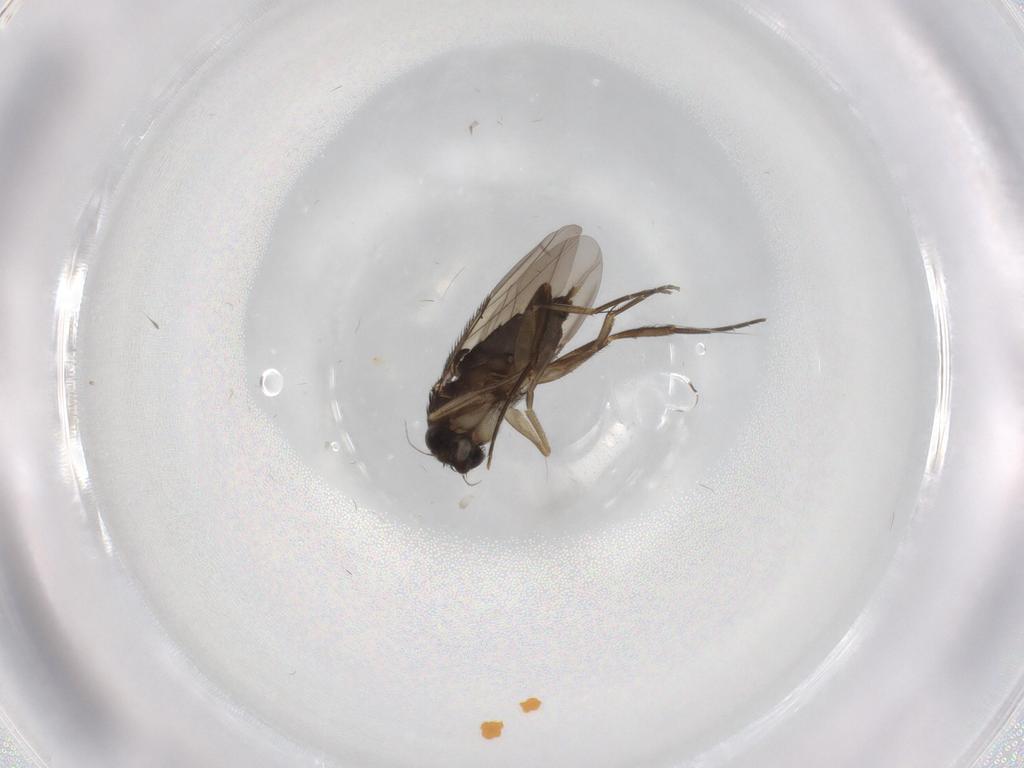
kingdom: Animalia
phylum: Arthropoda
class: Insecta
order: Diptera
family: Phoridae
